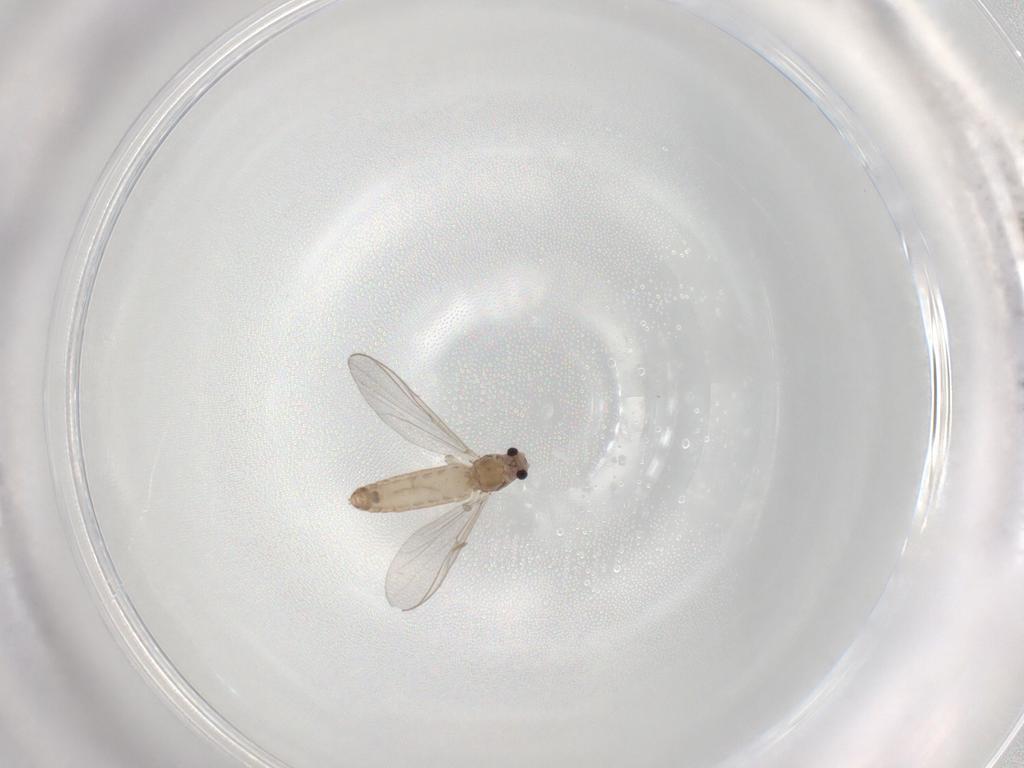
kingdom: Animalia
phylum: Arthropoda
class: Insecta
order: Diptera
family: Chironomidae
